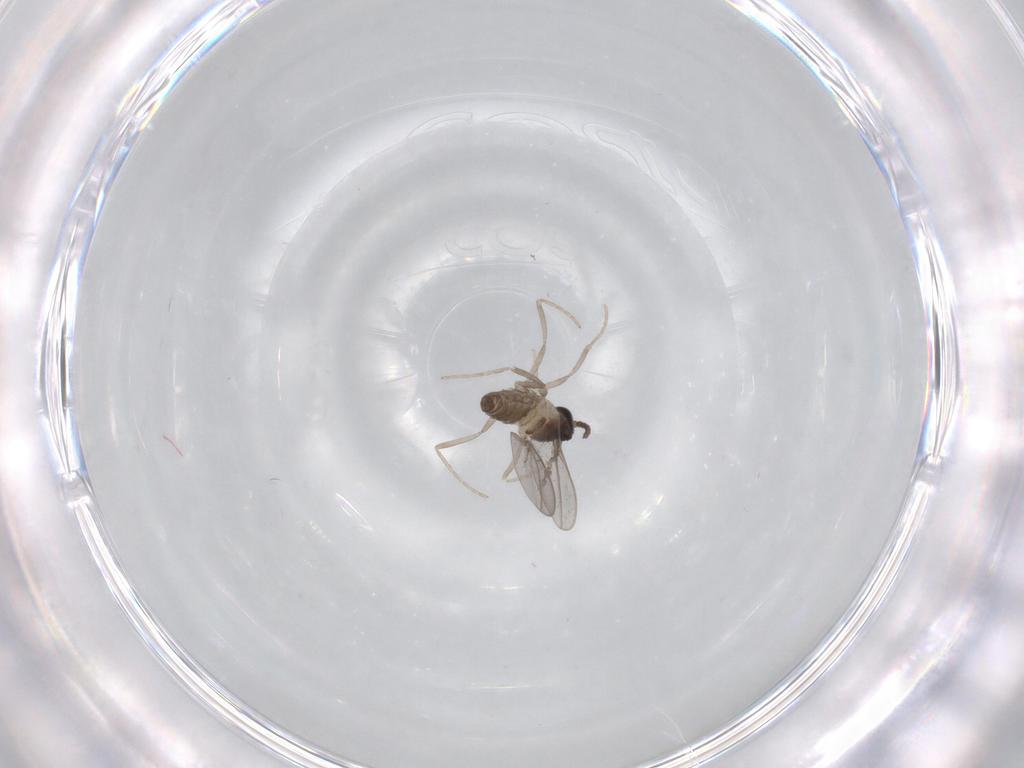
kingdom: Animalia
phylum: Arthropoda
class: Insecta
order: Diptera
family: Cecidomyiidae
